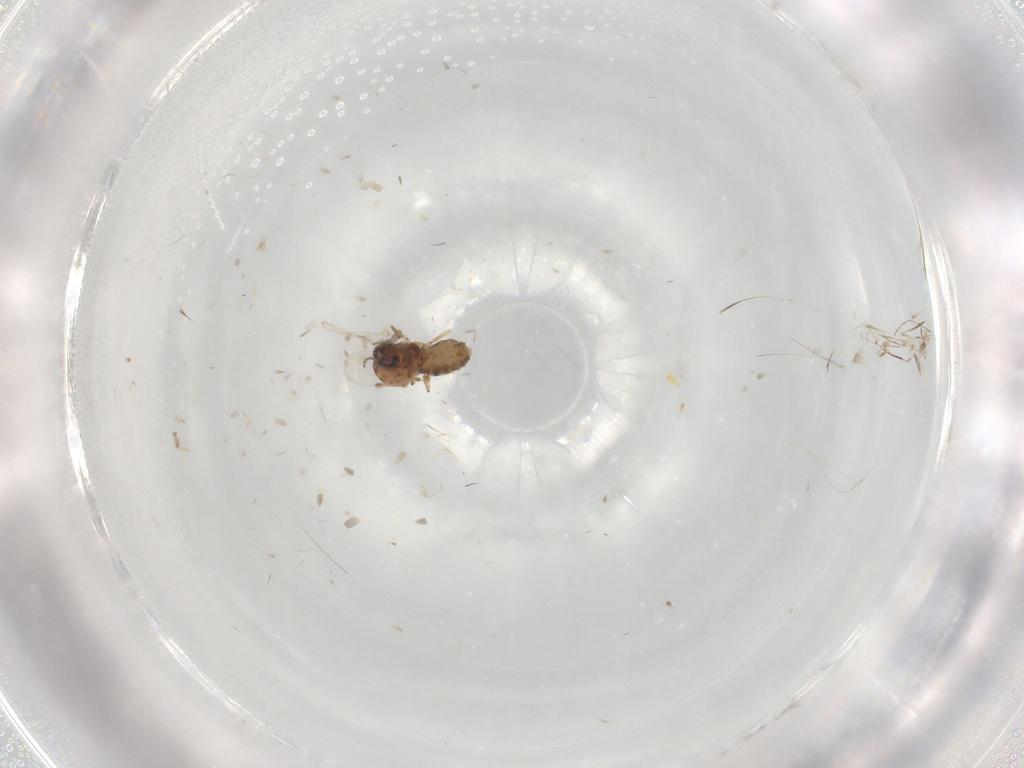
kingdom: Animalia
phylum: Arthropoda
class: Insecta
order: Diptera
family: Chaoboridae
